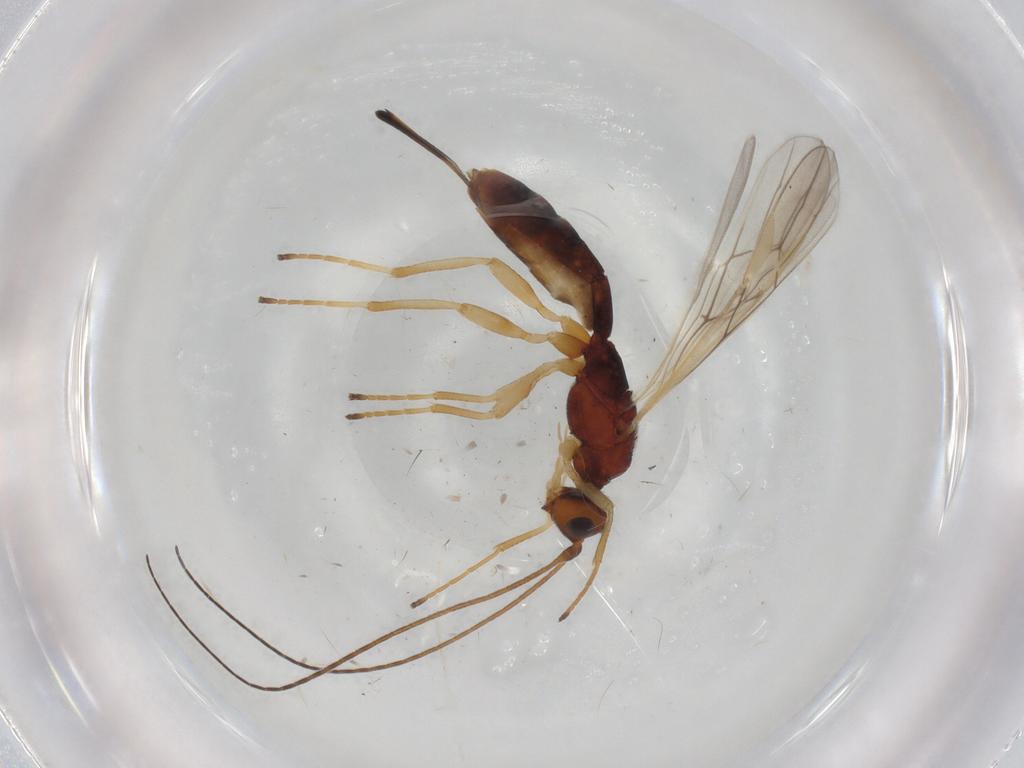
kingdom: Animalia
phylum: Arthropoda
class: Insecta
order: Hymenoptera
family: Braconidae
